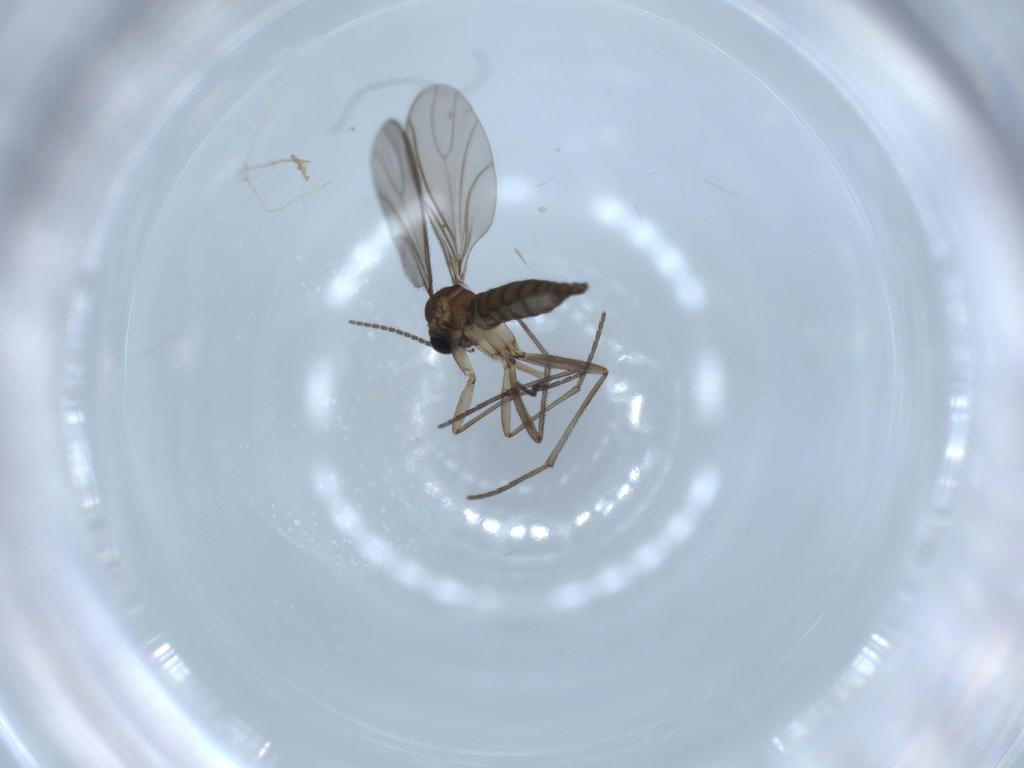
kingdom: Animalia
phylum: Arthropoda
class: Insecta
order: Diptera
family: Sciaridae
